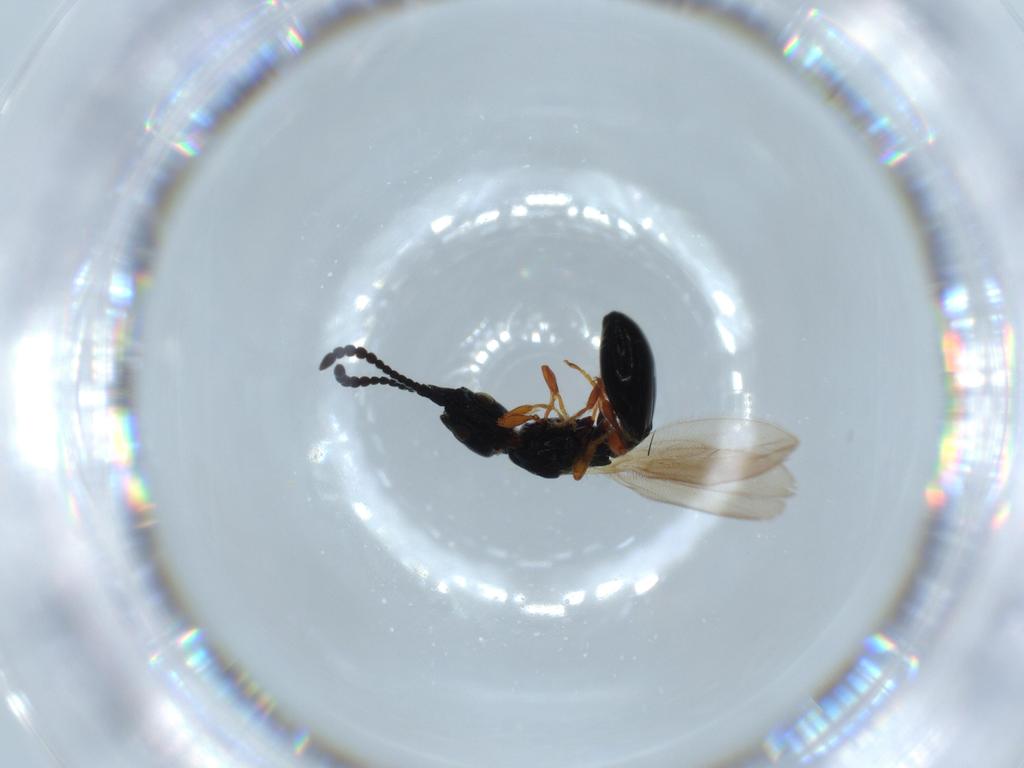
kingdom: Animalia
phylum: Arthropoda
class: Insecta
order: Hymenoptera
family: Diapriidae
